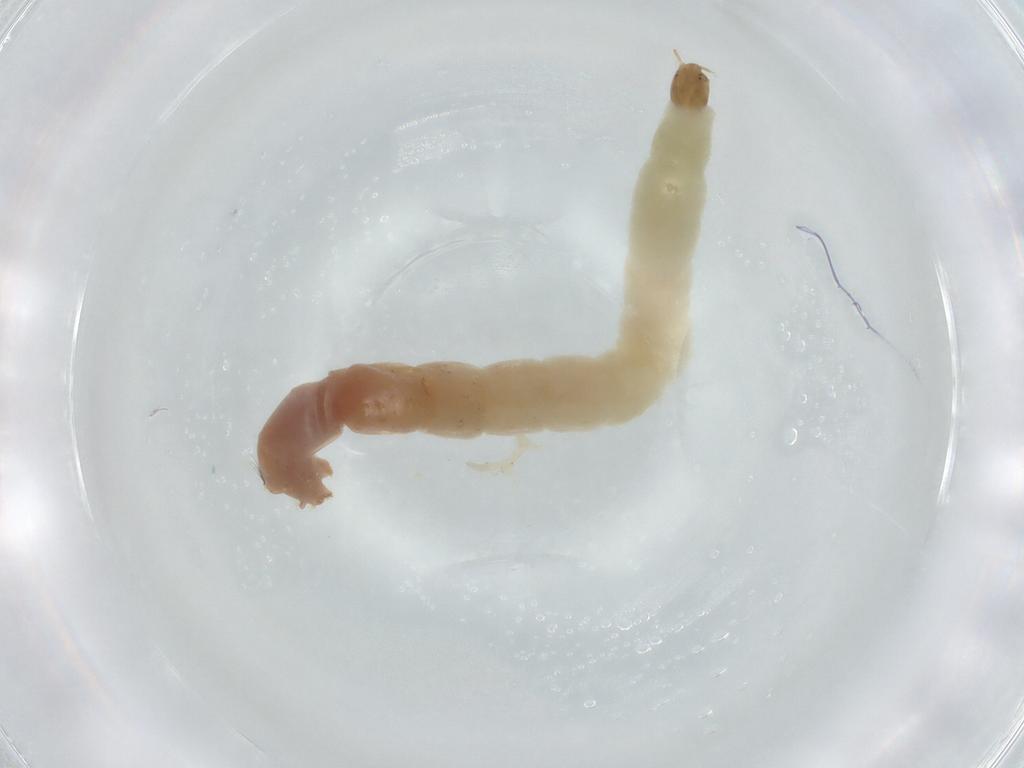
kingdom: Animalia
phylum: Arthropoda
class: Insecta
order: Diptera
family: Chironomidae
